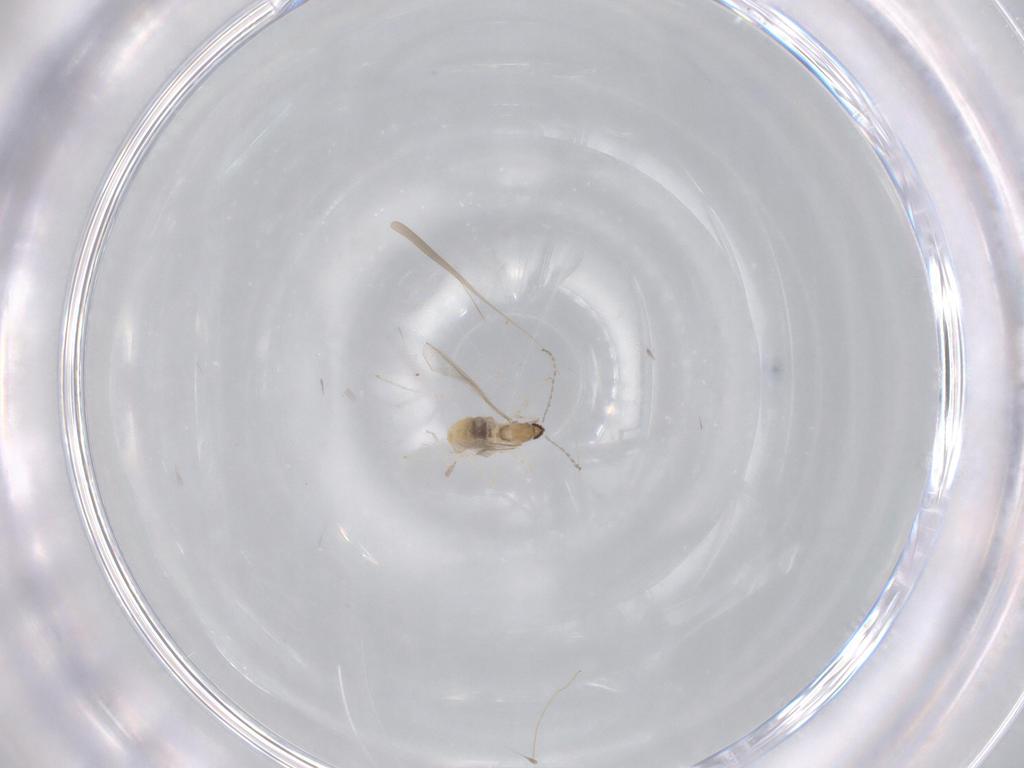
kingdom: Animalia
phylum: Arthropoda
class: Insecta
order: Diptera
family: Cecidomyiidae
